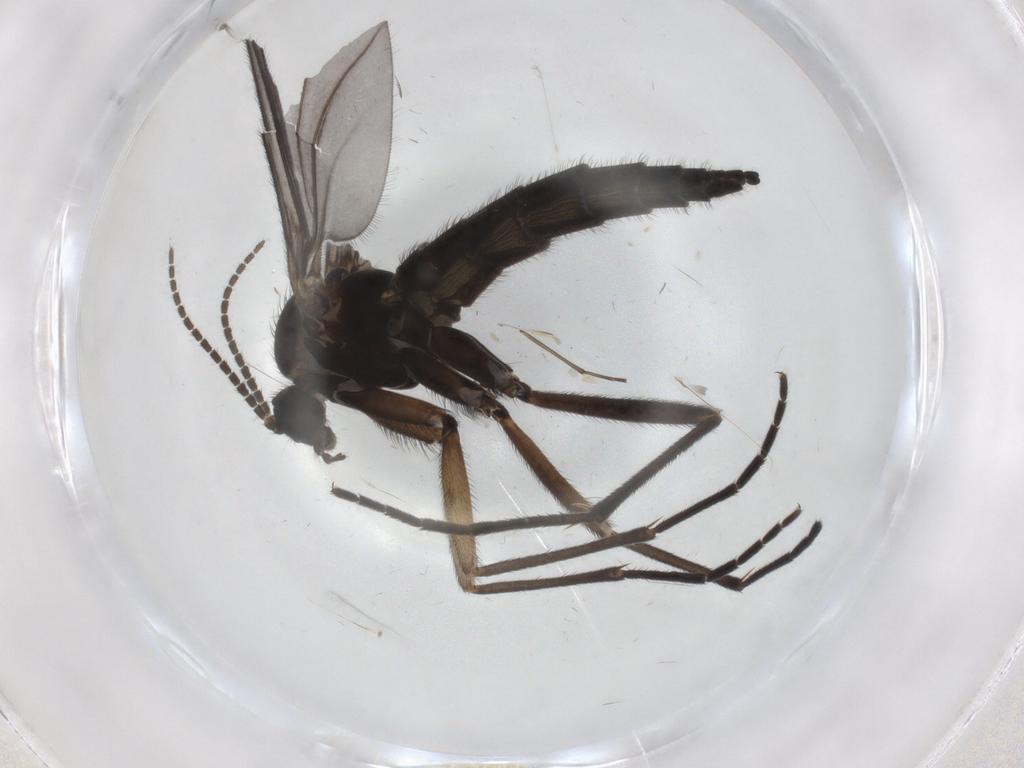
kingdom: Animalia
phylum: Arthropoda
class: Insecta
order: Diptera
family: Sciaridae
